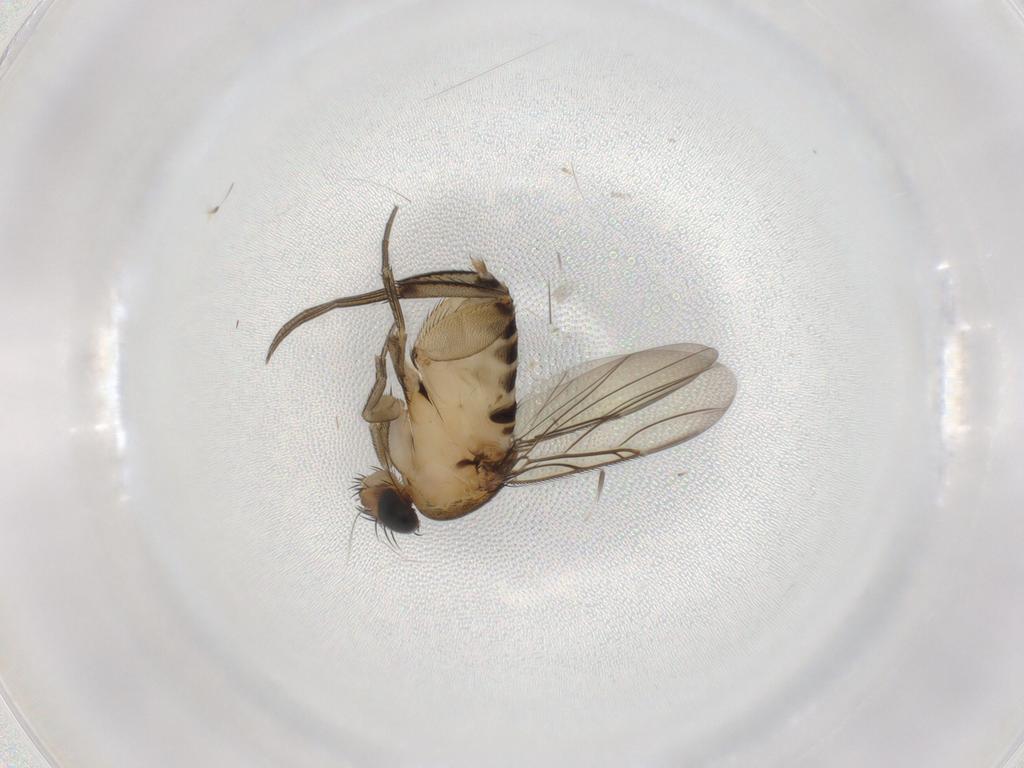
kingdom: Animalia
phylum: Arthropoda
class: Insecta
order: Diptera
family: Phoridae
